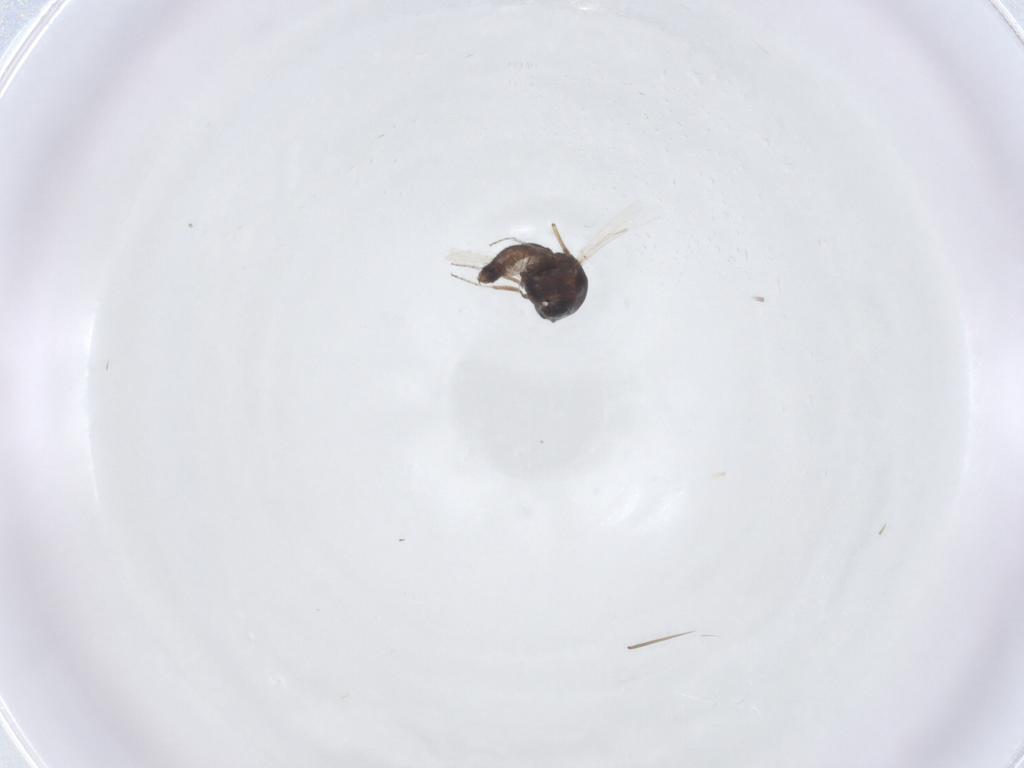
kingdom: Animalia
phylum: Arthropoda
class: Insecta
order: Diptera
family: Ceratopogonidae
